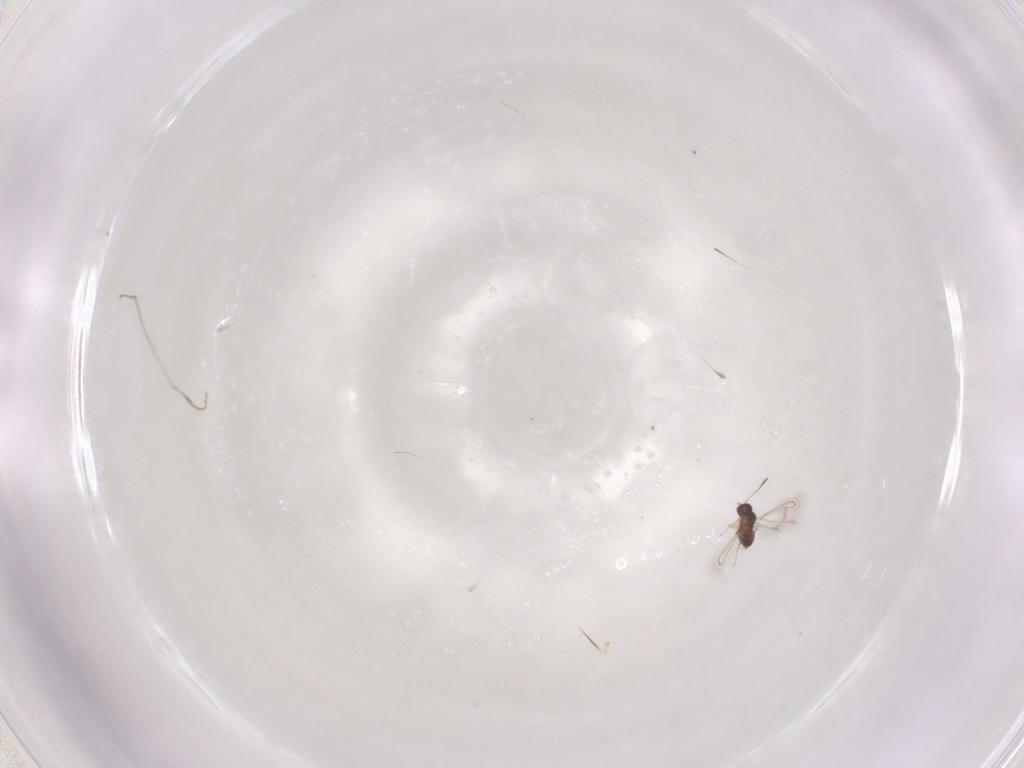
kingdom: Animalia
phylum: Arthropoda
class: Insecta
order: Hymenoptera
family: Mymaridae
